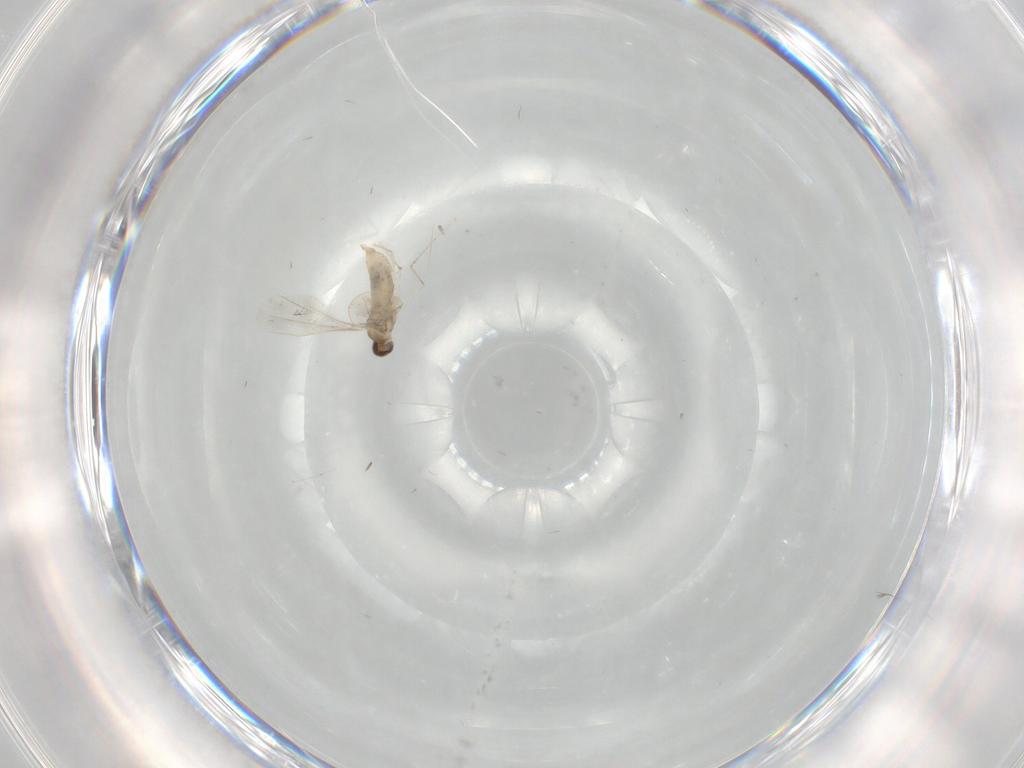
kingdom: Animalia
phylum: Arthropoda
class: Insecta
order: Diptera
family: Cecidomyiidae
